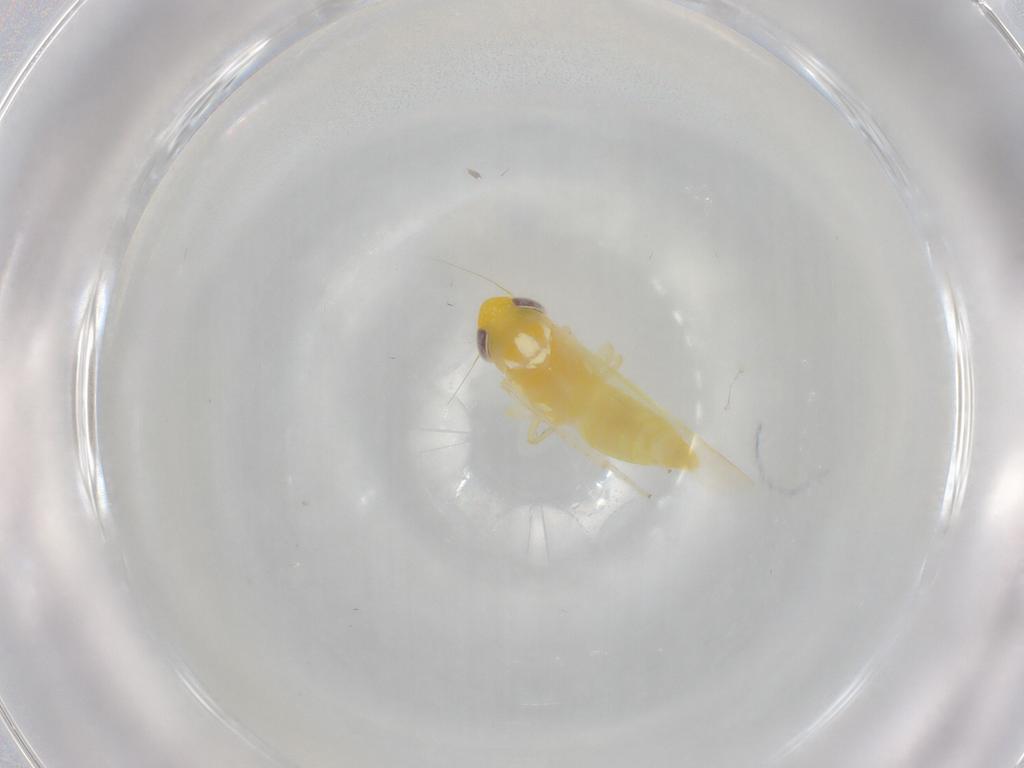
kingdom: Animalia
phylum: Arthropoda
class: Insecta
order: Hemiptera
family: Cicadellidae
